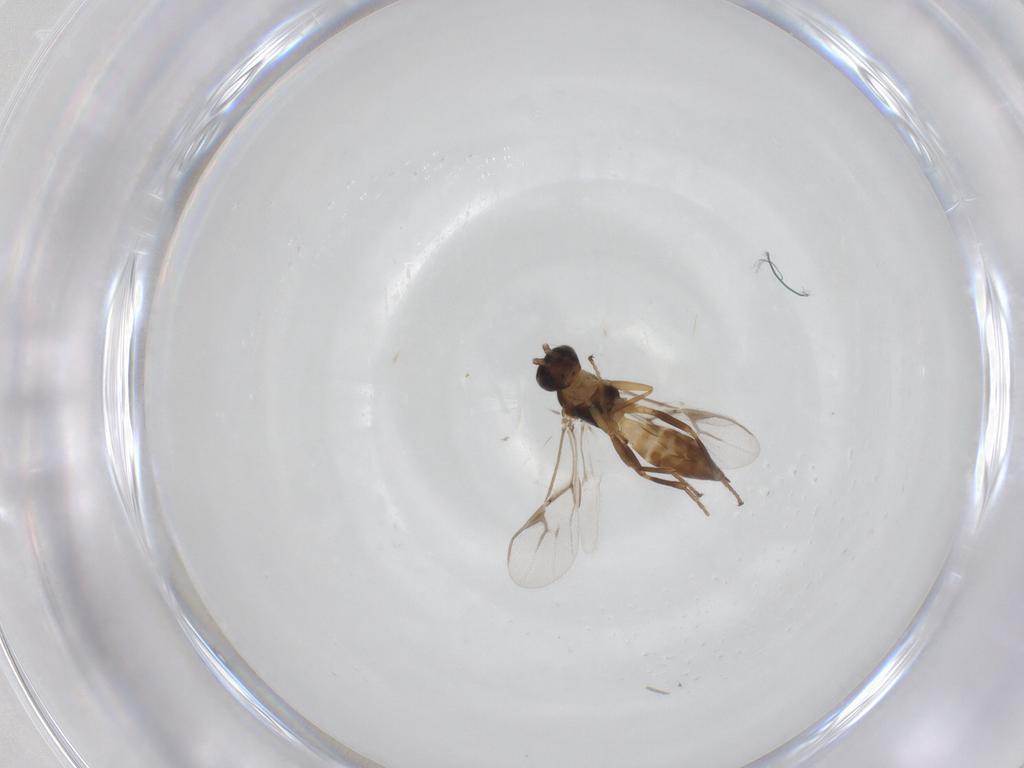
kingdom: Animalia
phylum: Arthropoda
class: Insecta
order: Hymenoptera
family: Braconidae
